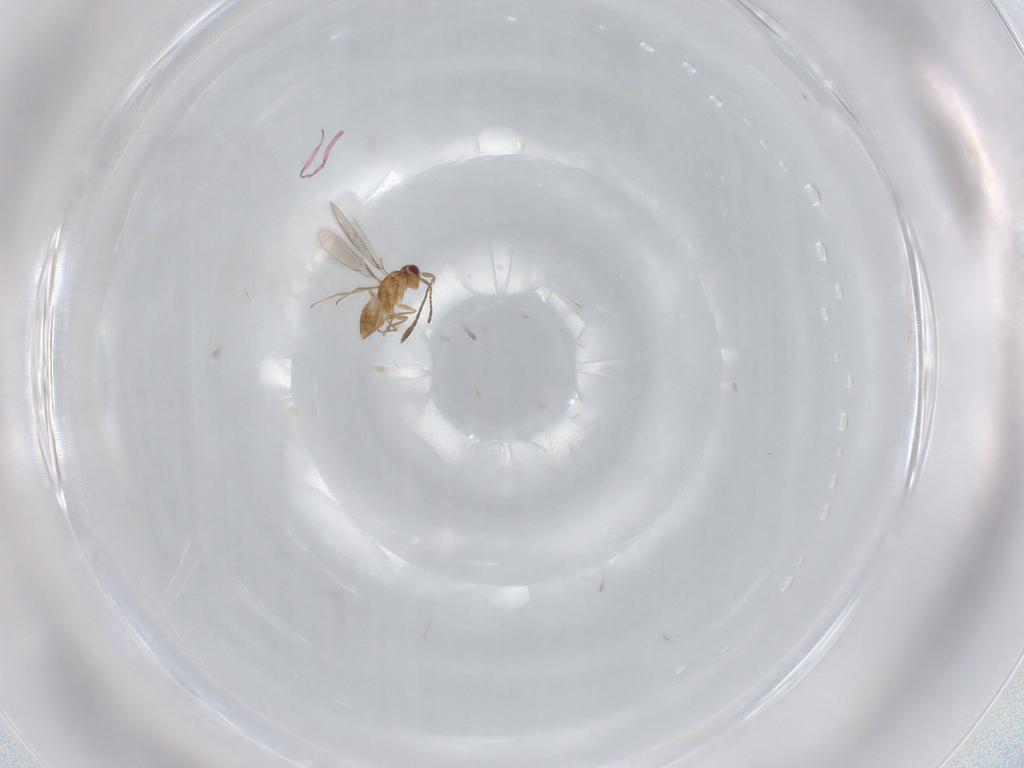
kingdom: Animalia
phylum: Arthropoda
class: Insecta
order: Hymenoptera
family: Mymaridae
